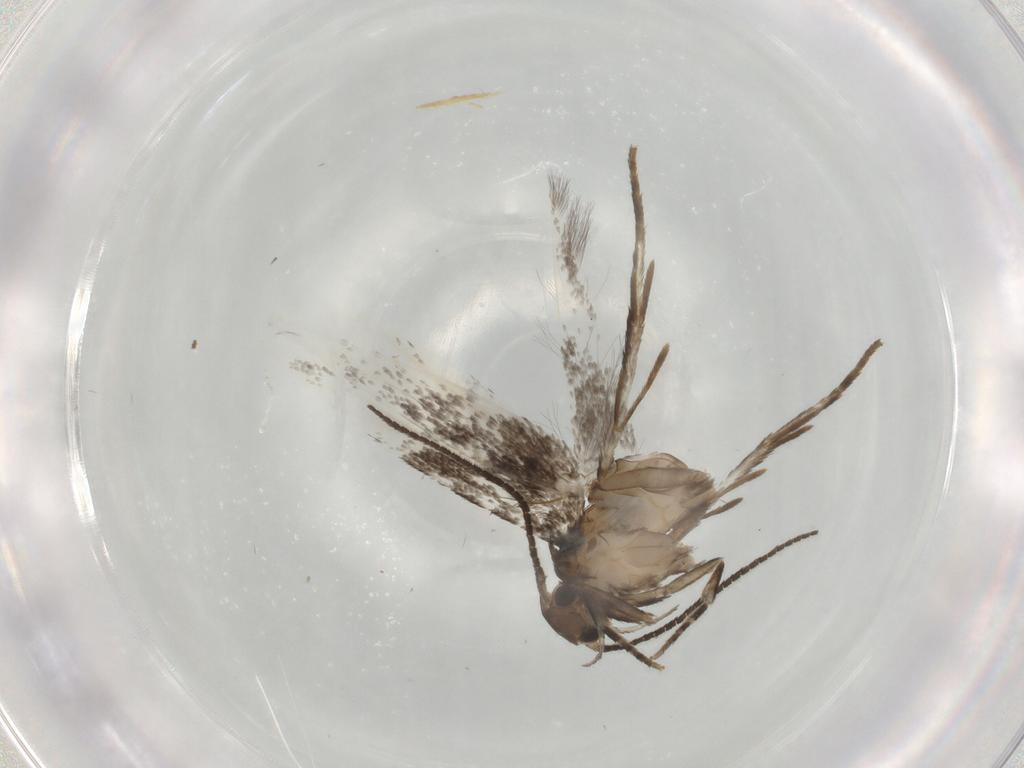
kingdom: Animalia
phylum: Arthropoda
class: Insecta
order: Lepidoptera
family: Elachistidae
